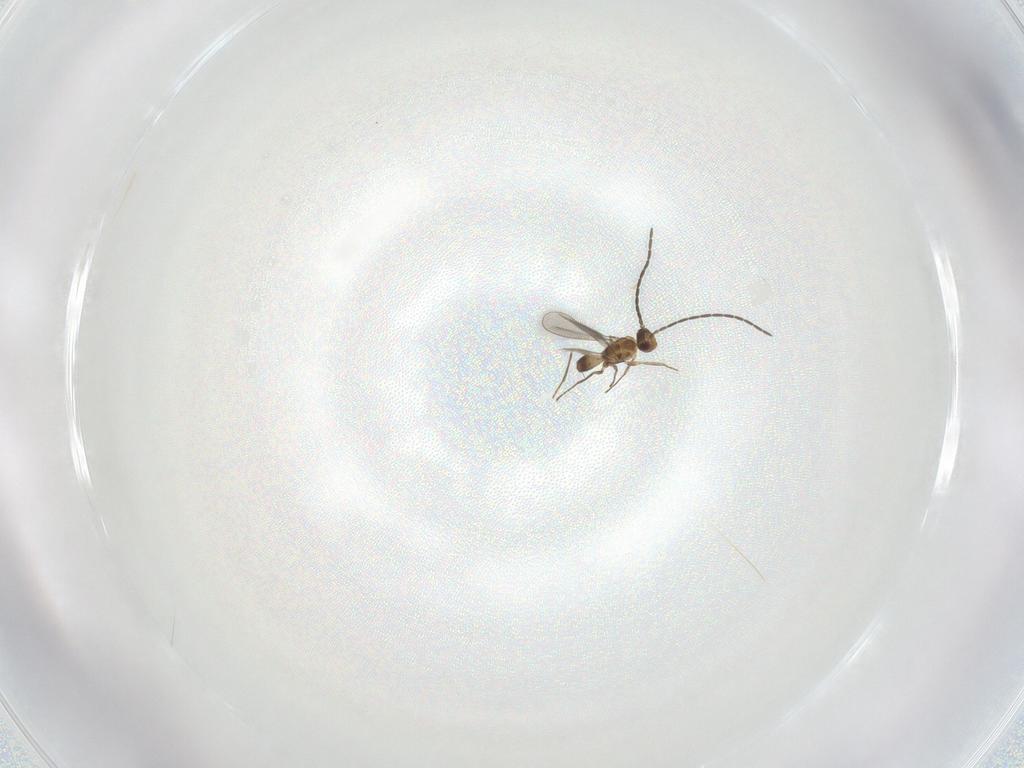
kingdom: Animalia
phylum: Arthropoda
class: Insecta
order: Hymenoptera
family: Mymaridae
